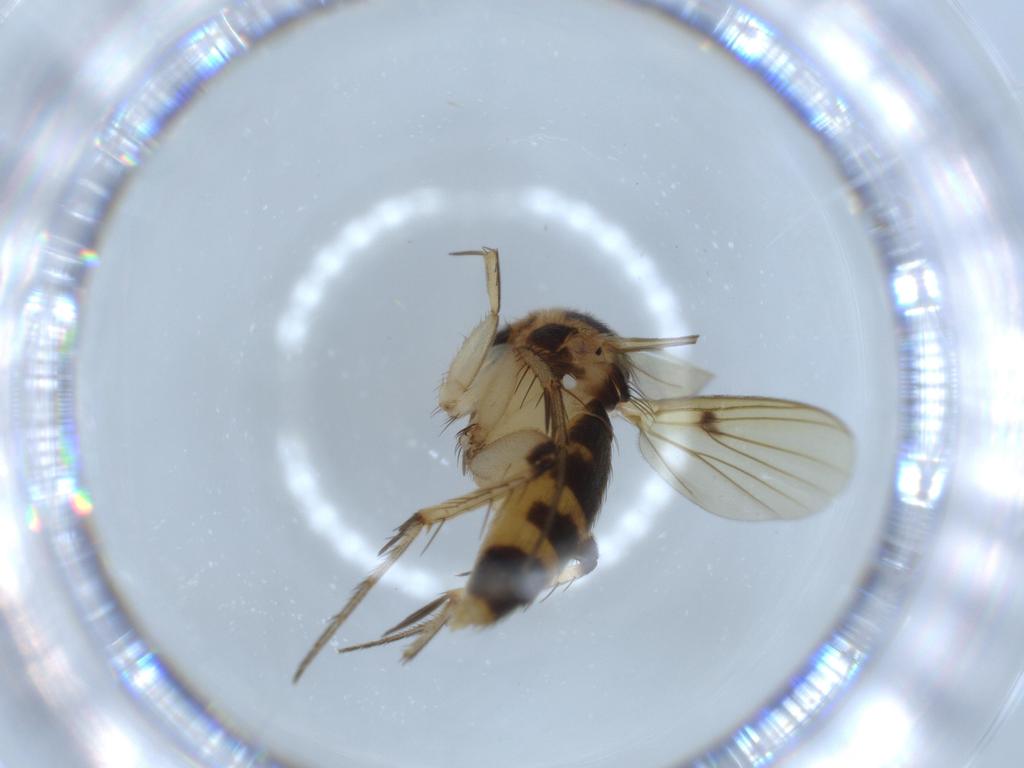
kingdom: Animalia
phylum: Arthropoda
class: Insecta
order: Diptera
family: Mycetophilidae
